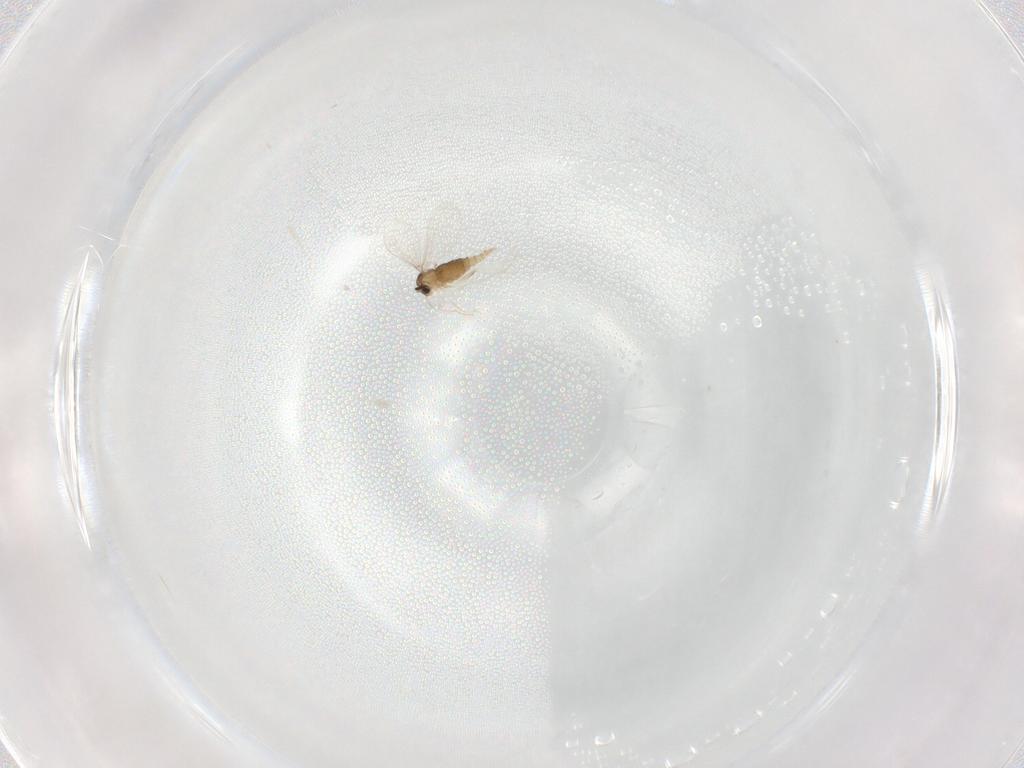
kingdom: Animalia
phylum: Arthropoda
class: Insecta
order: Diptera
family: Cecidomyiidae
